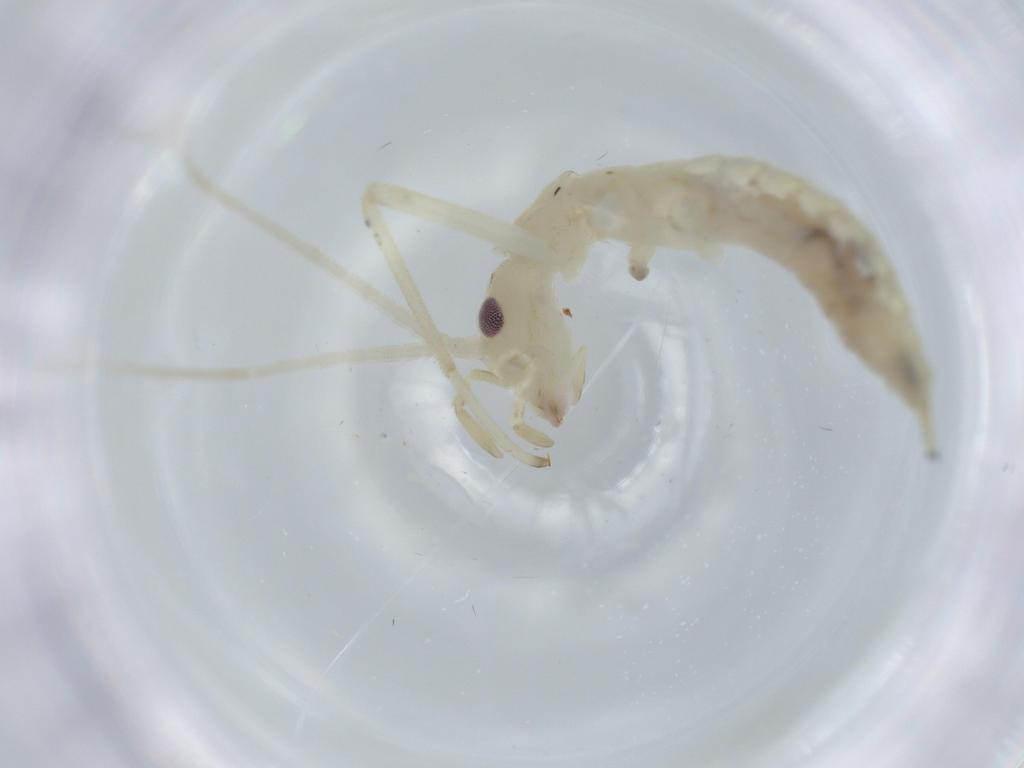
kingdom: Animalia
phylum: Arthropoda
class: Insecta
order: Orthoptera
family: Oecanthidae
